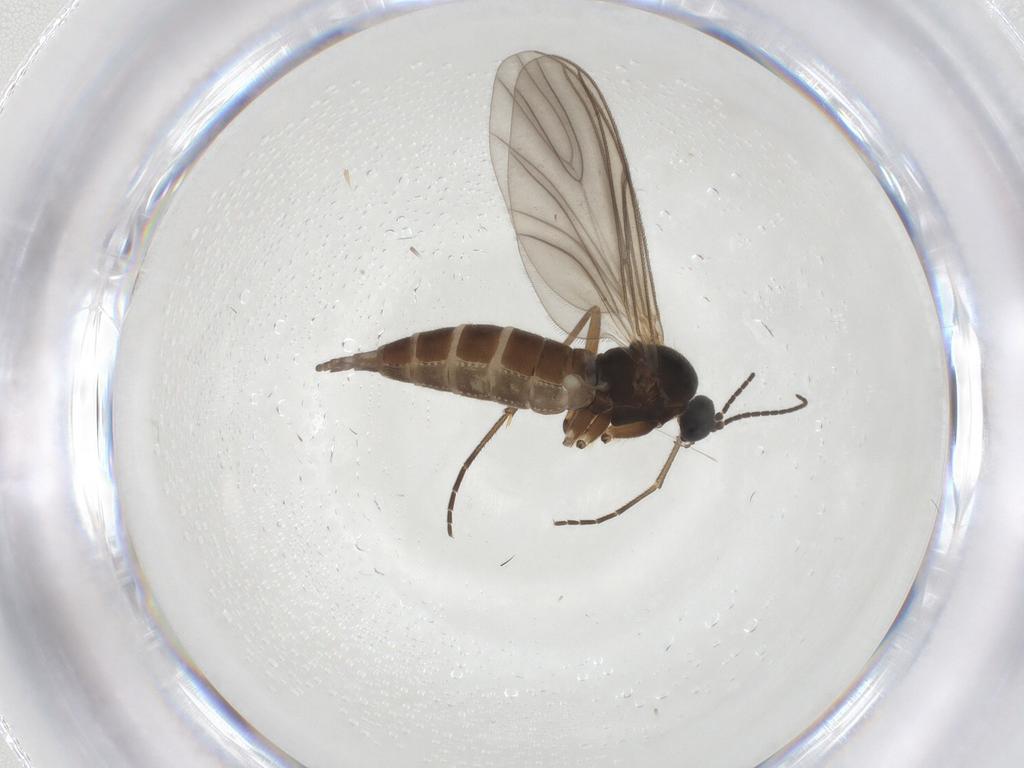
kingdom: Animalia
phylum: Arthropoda
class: Insecta
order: Diptera
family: Sciaridae
